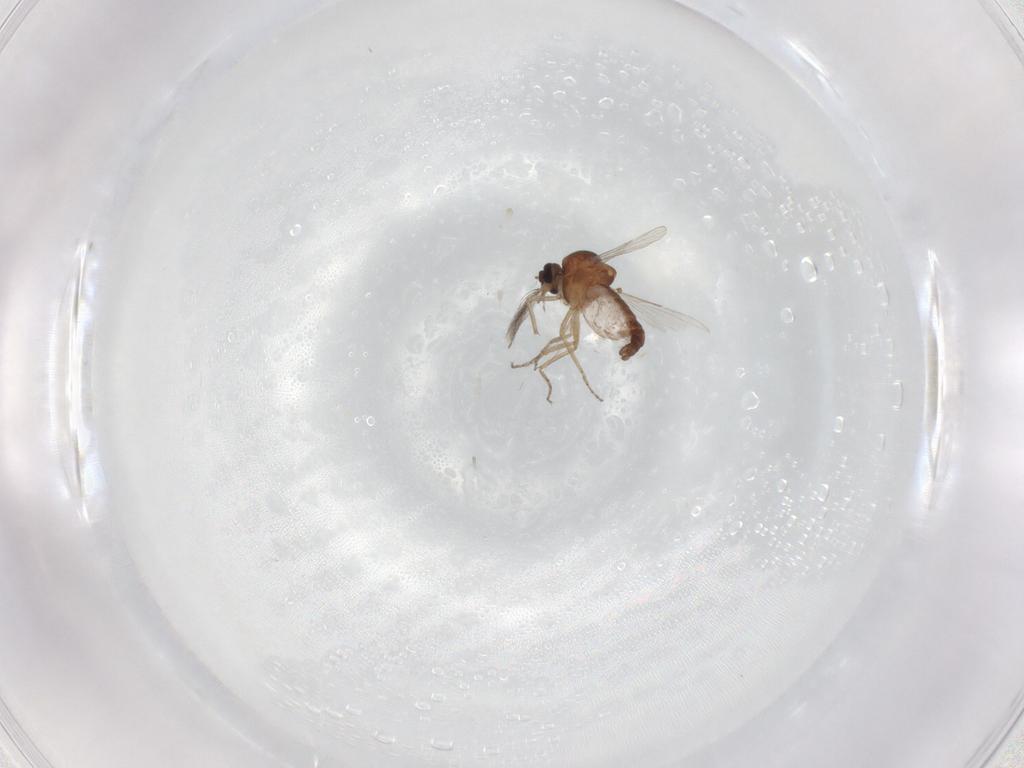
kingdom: Animalia
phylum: Arthropoda
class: Insecta
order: Diptera
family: Ceratopogonidae
